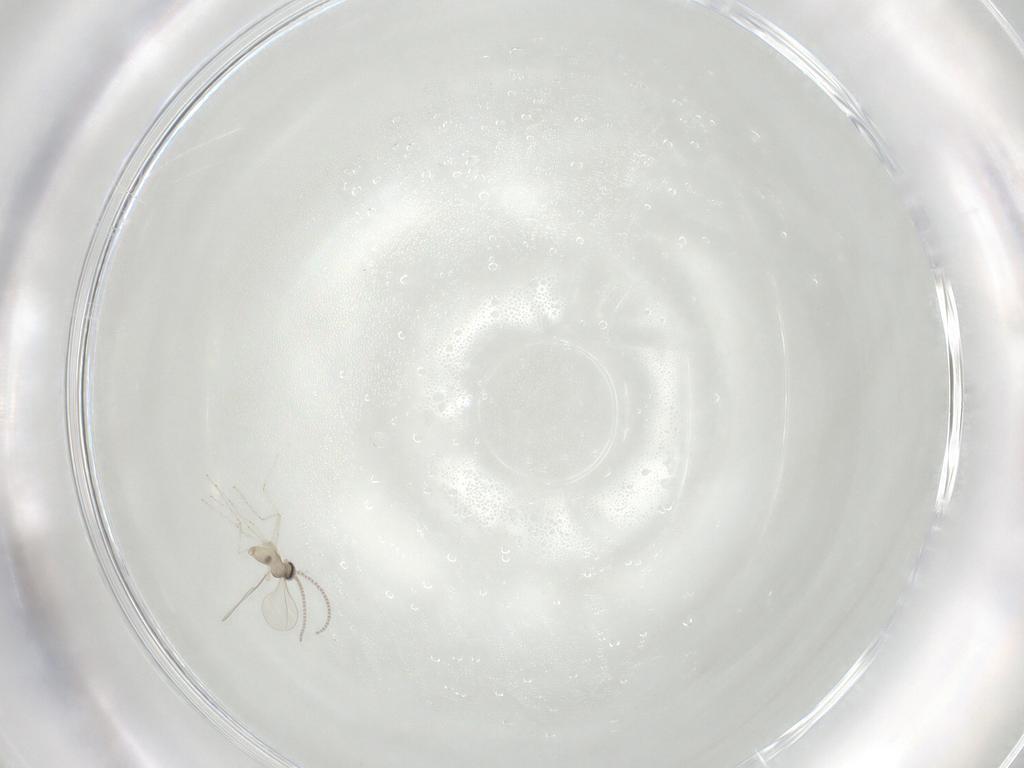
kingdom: Animalia
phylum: Arthropoda
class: Insecta
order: Diptera
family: Cecidomyiidae
